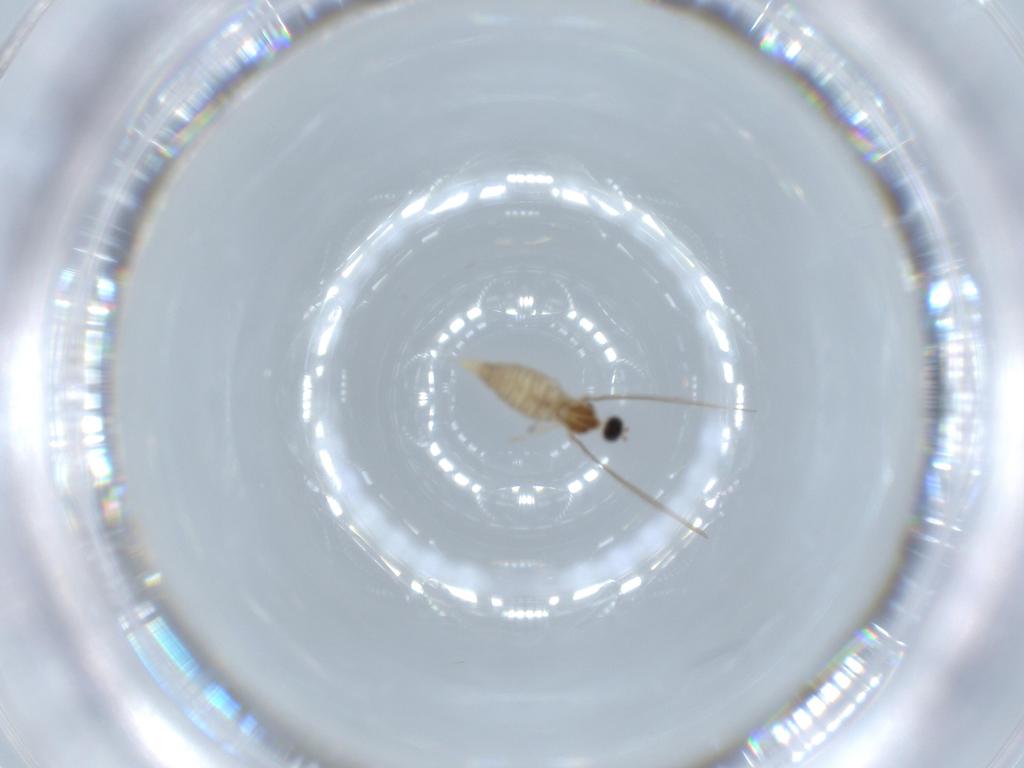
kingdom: Animalia
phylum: Arthropoda
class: Insecta
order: Diptera
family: Cecidomyiidae
